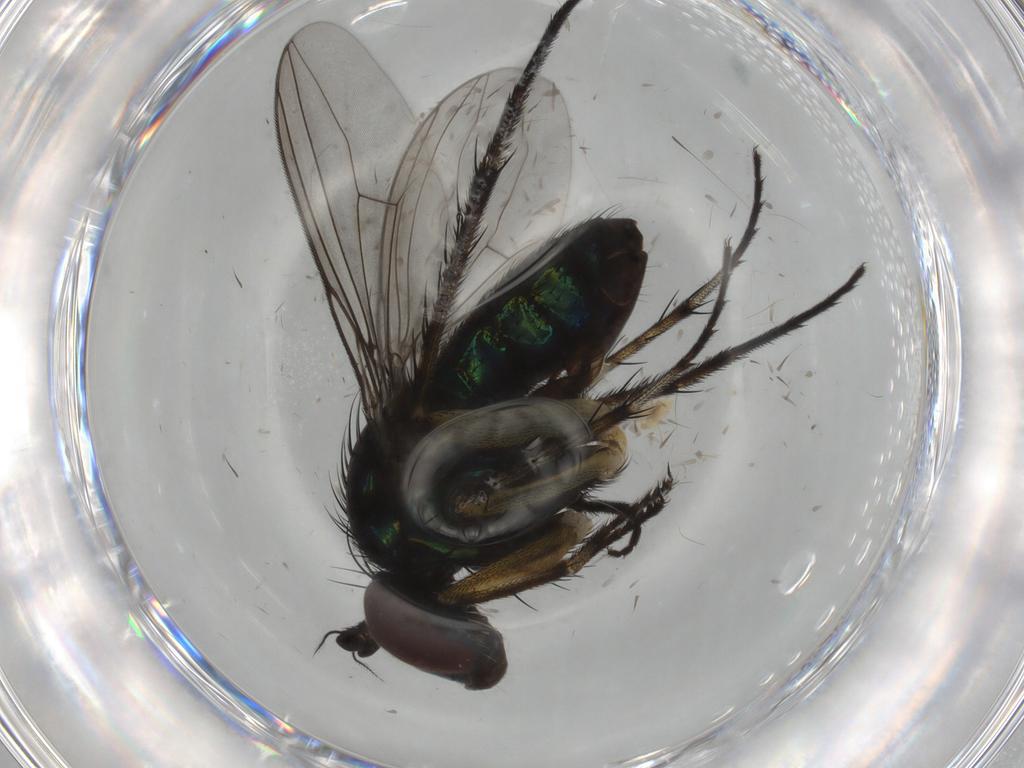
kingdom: Animalia
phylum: Arthropoda
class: Insecta
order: Diptera
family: Dolichopodidae
